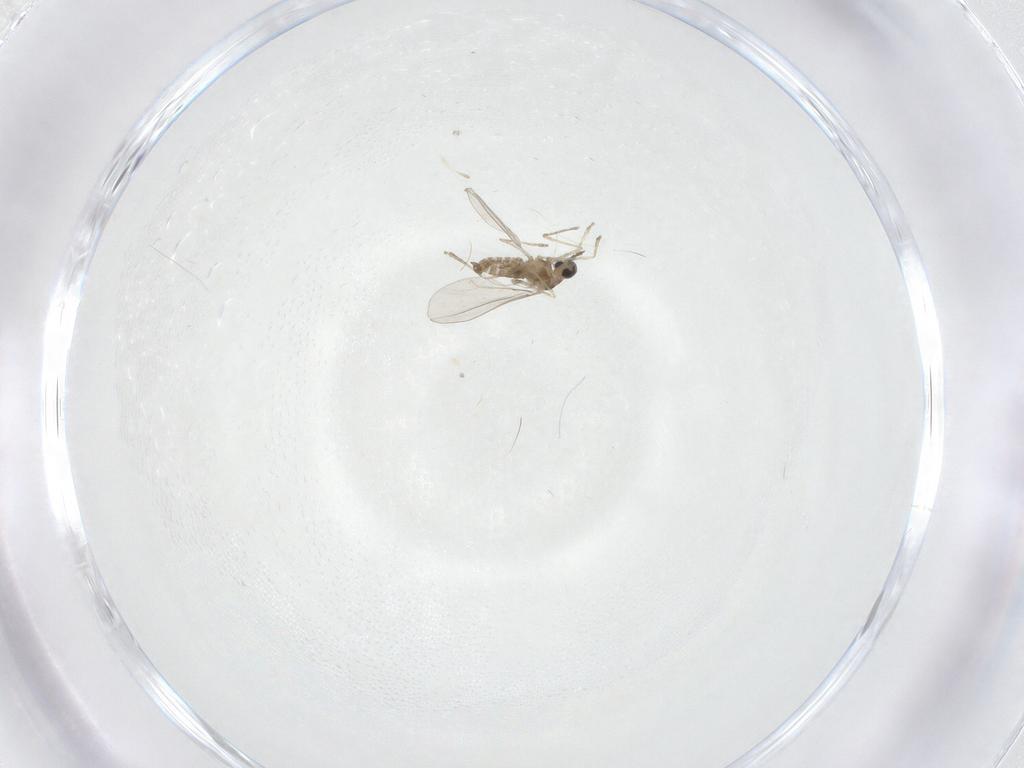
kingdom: Animalia
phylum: Arthropoda
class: Insecta
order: Diptera
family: Cecidomyiidae
